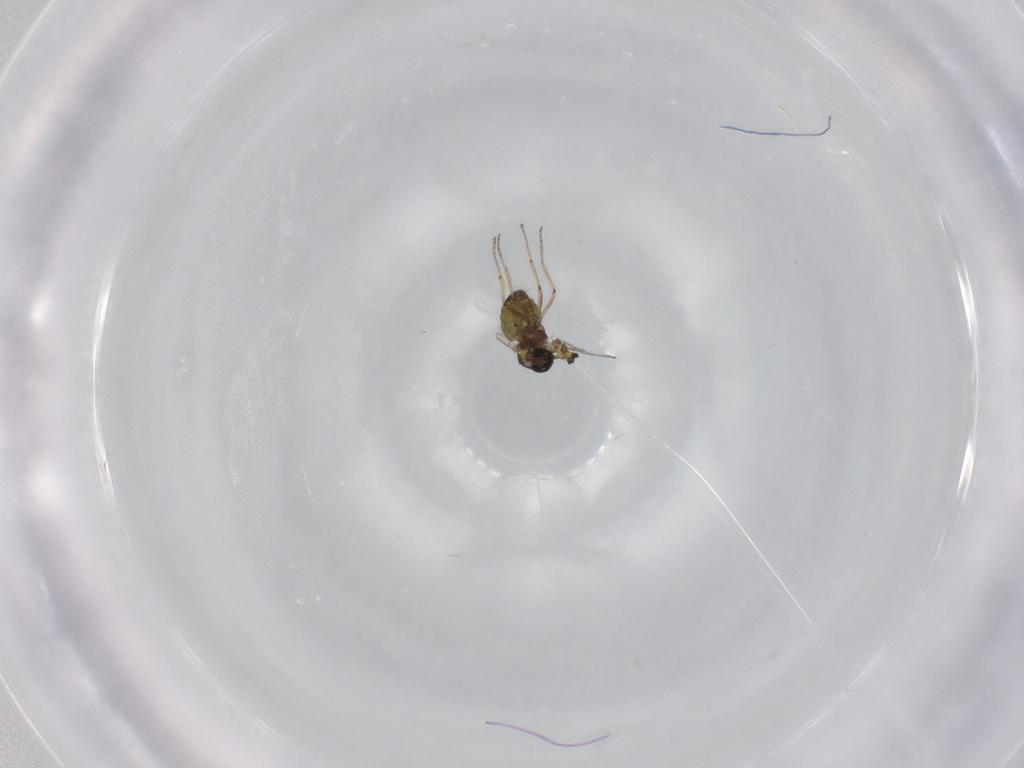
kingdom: Animalia
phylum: Arthropoda
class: Insecta
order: Diptera
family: Ceratopogonidae
